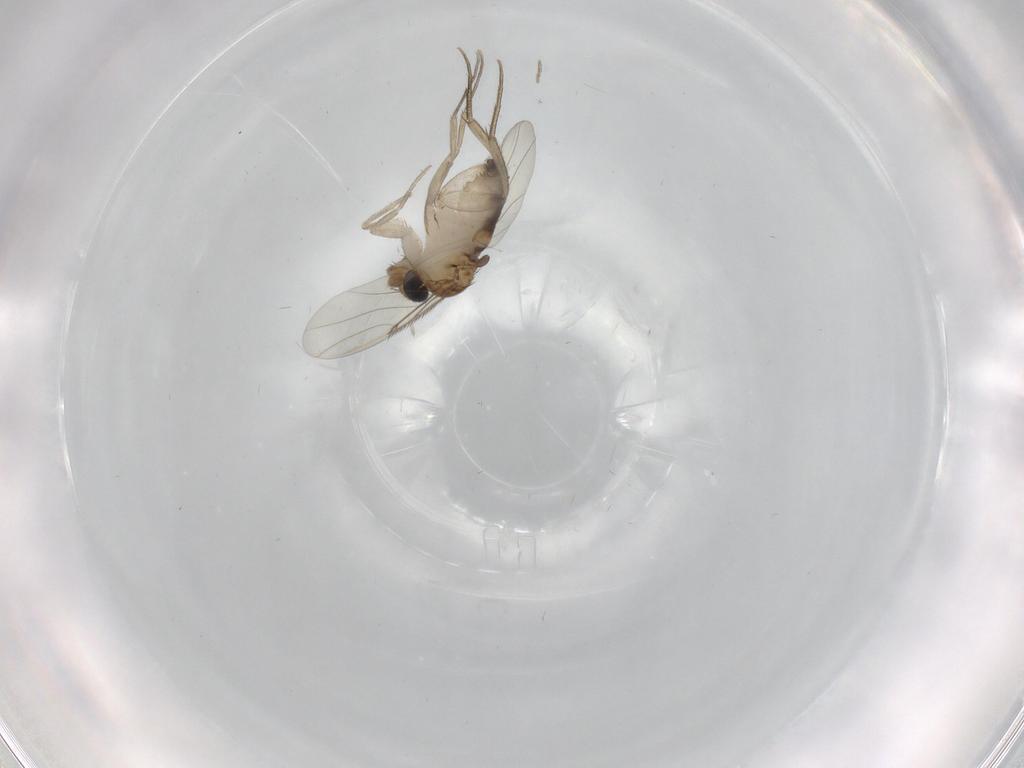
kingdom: Animalia
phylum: Arthropoda
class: Insecta
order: Diptera
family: Phoridae
